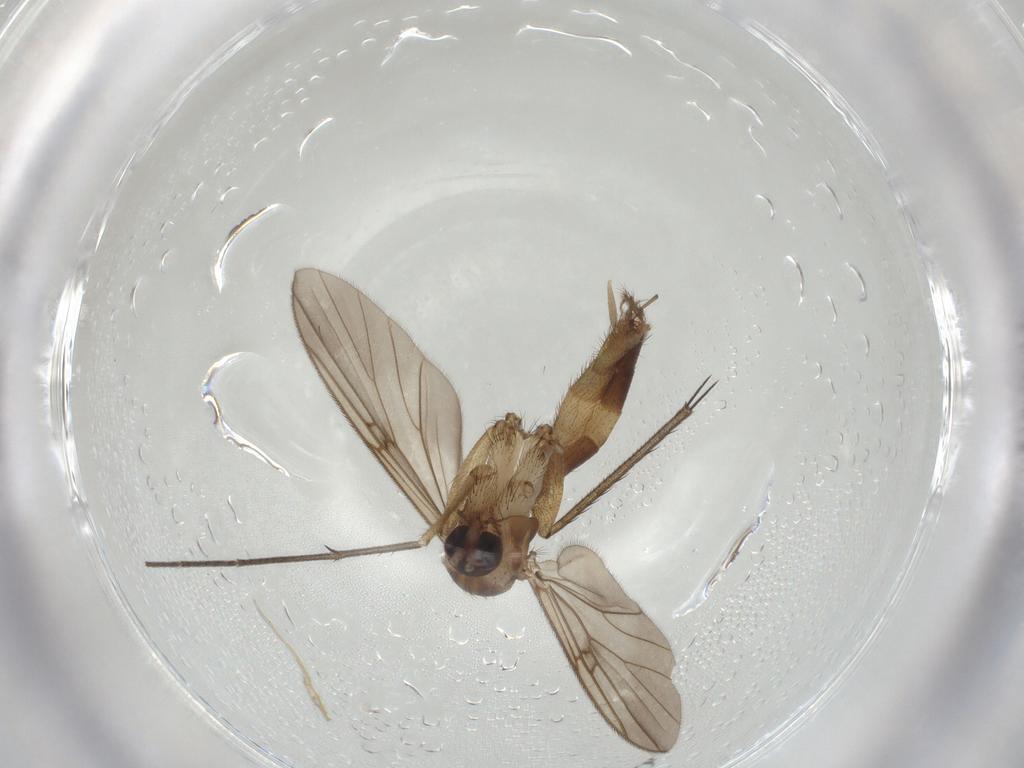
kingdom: Animalia
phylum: Arthropoda
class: Insecta
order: Diptera
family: Mycetophilidae
